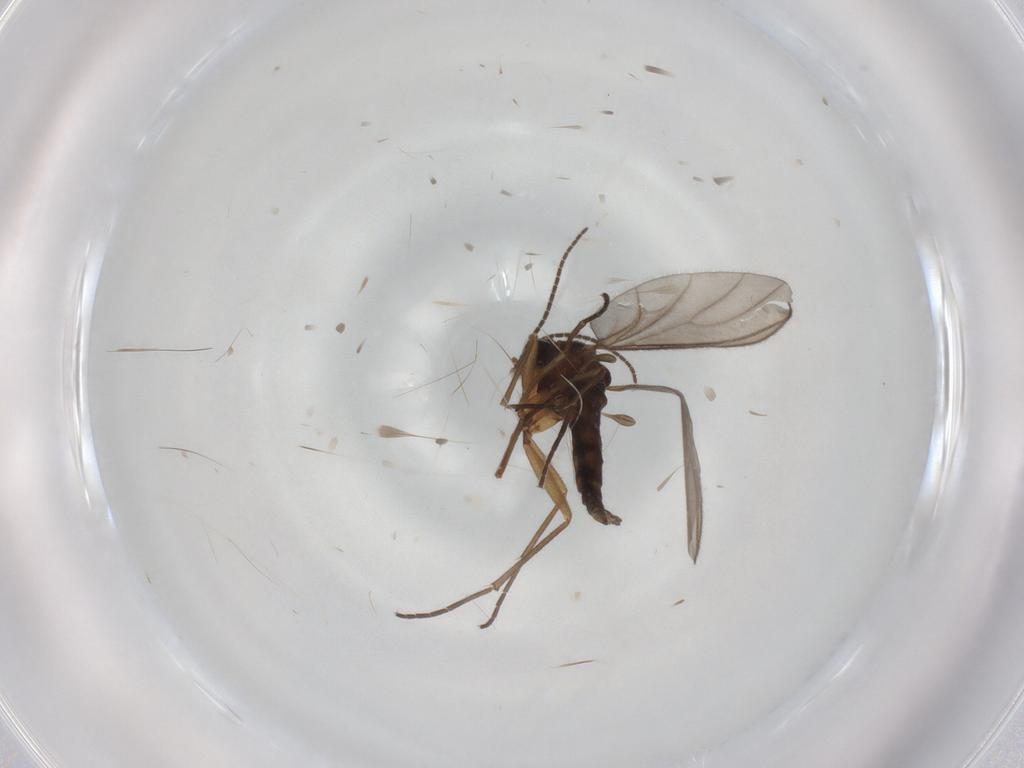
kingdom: Animalia
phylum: Arthropoda
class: Insecta
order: Diptera
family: Sciaridae
